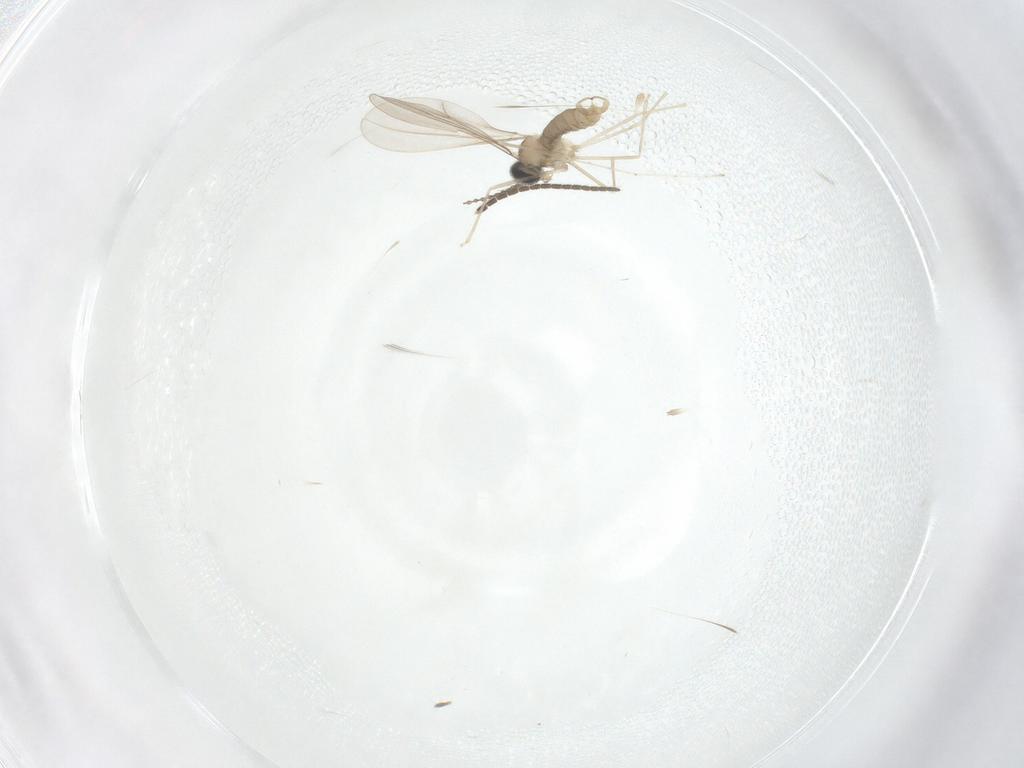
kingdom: Animalia
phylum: Arthropoda
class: Insecta
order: Diptera
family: Cecidomyiidae
